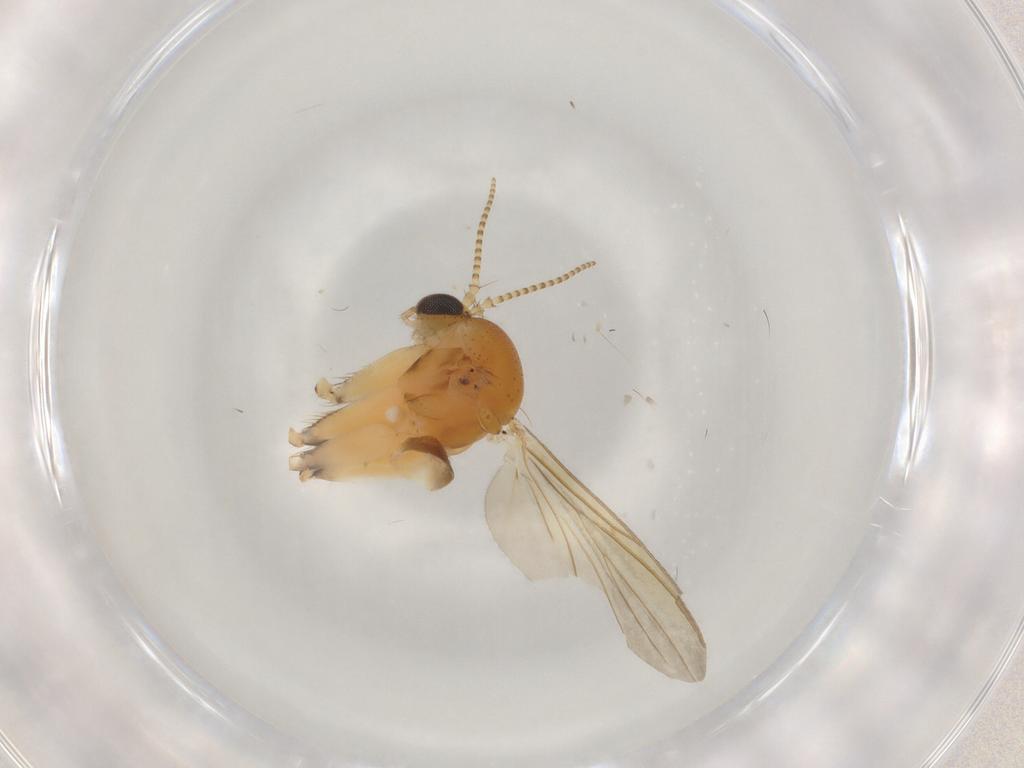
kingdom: Animalia
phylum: Arthropoda
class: Insecta
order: Diptera
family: Mycetophilidae
